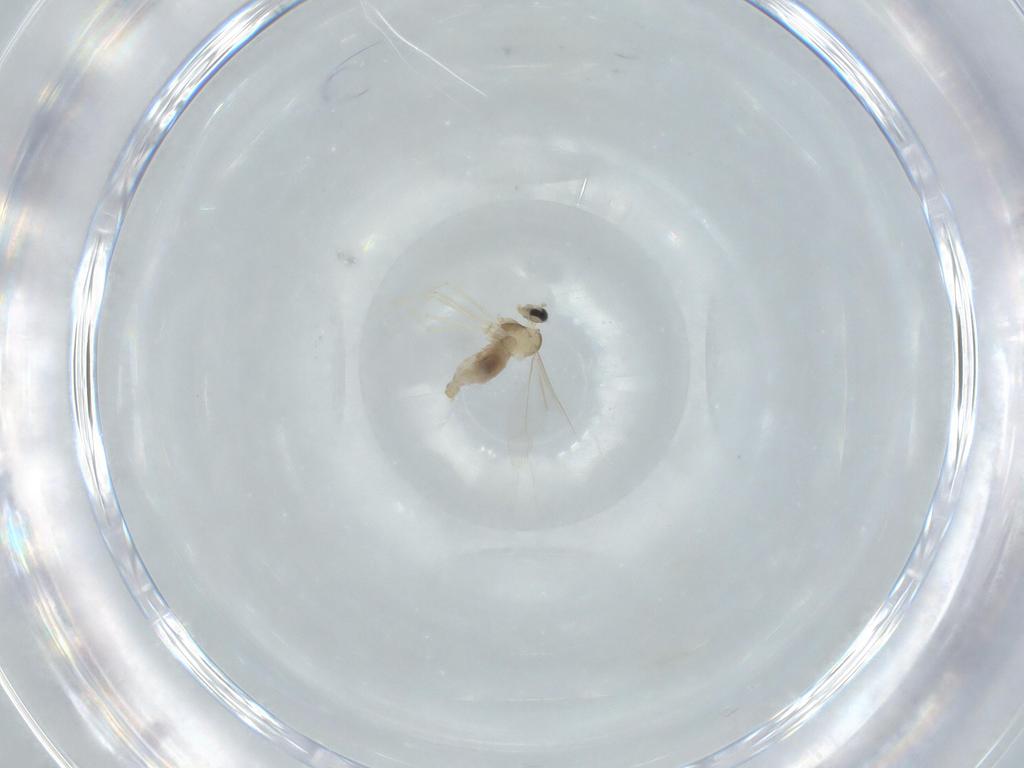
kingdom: Animalia
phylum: Arthropoda
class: Insecta
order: Diptera
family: Cecidomyiidae
